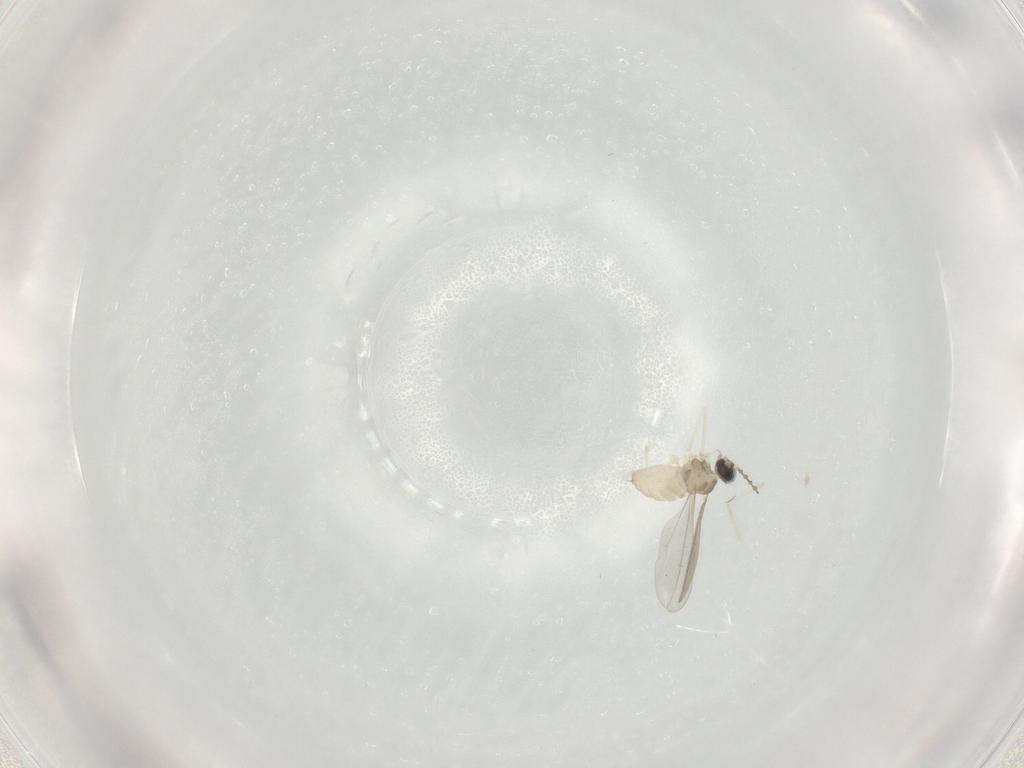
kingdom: Animalia
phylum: Arthropoda
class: Insecta
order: Diptera
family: Cecidomyiidae
